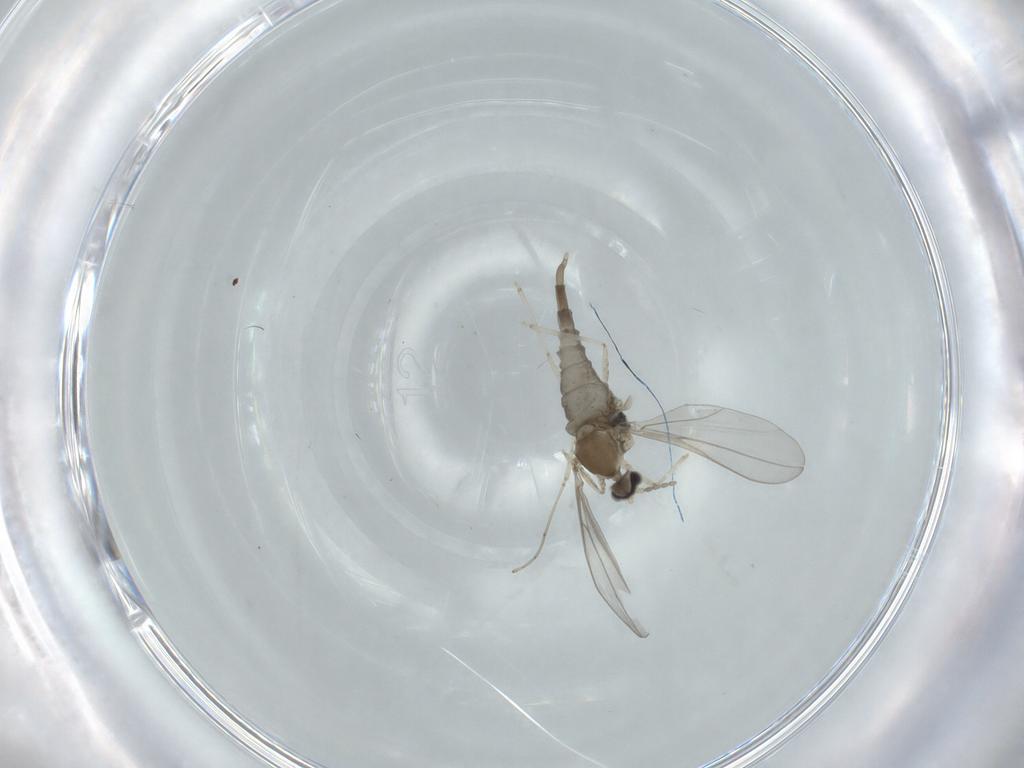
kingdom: Animalia
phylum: Arthropoda
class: Insecta
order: Diptera
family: Cecidomyiidae
